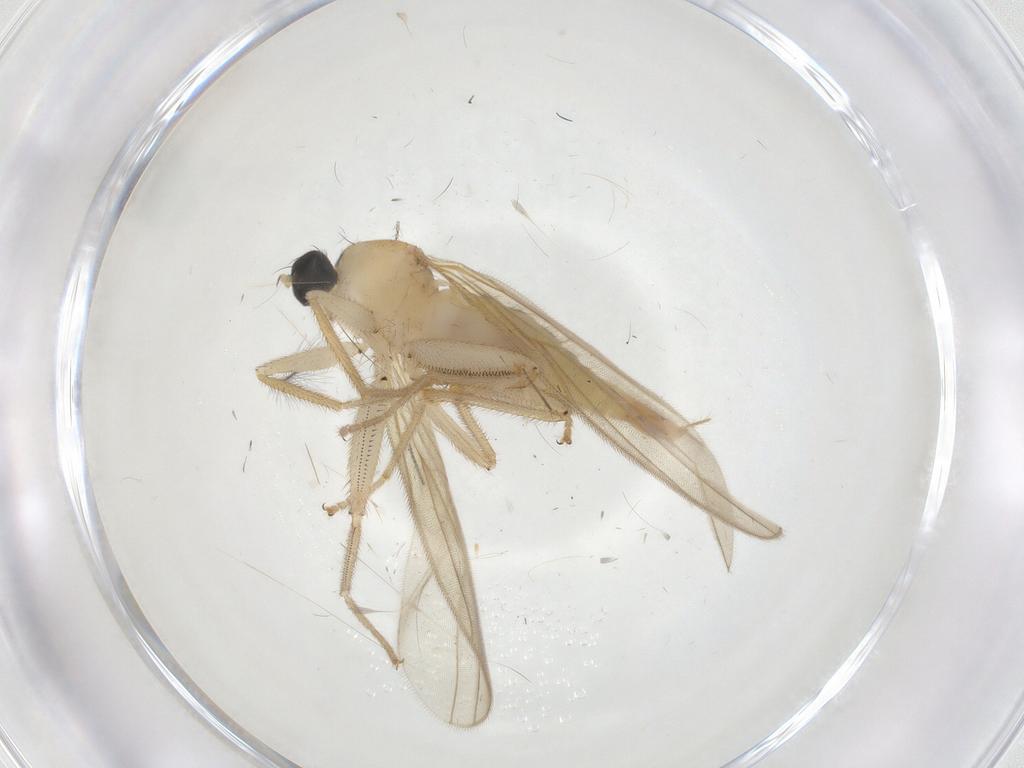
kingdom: Animalia
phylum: Arthropoda
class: Insecta
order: Diptera
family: Hybotidae
